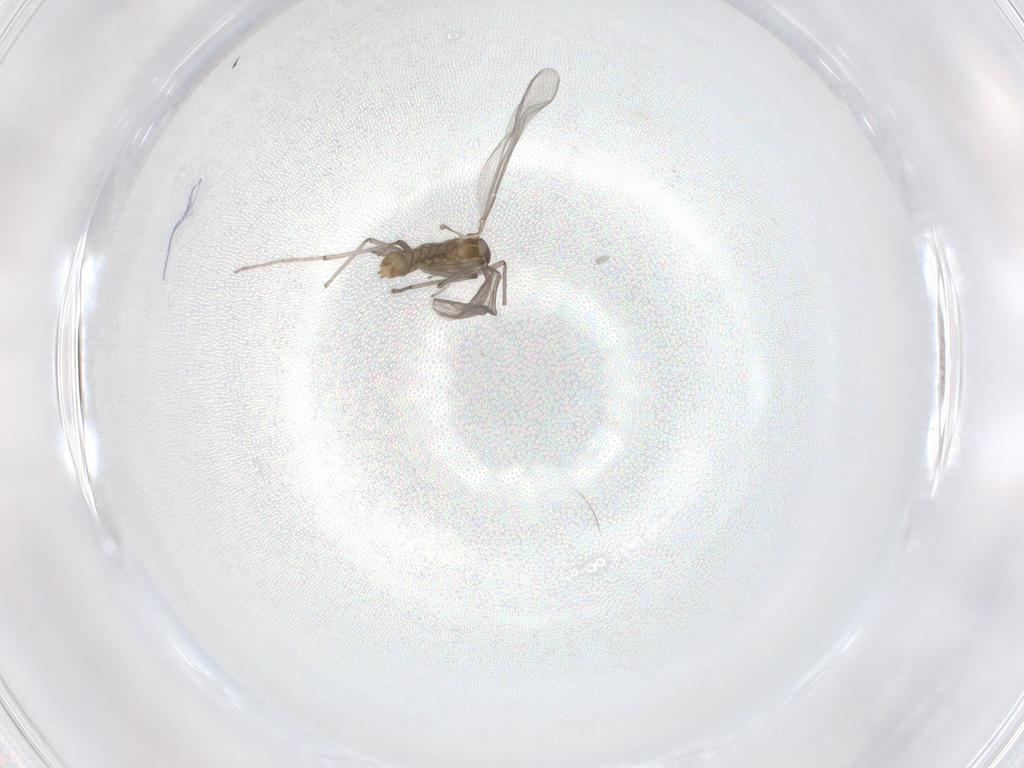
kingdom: Animalia
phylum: Arthropoda
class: Insecta
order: Diptera
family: Chironomidae
